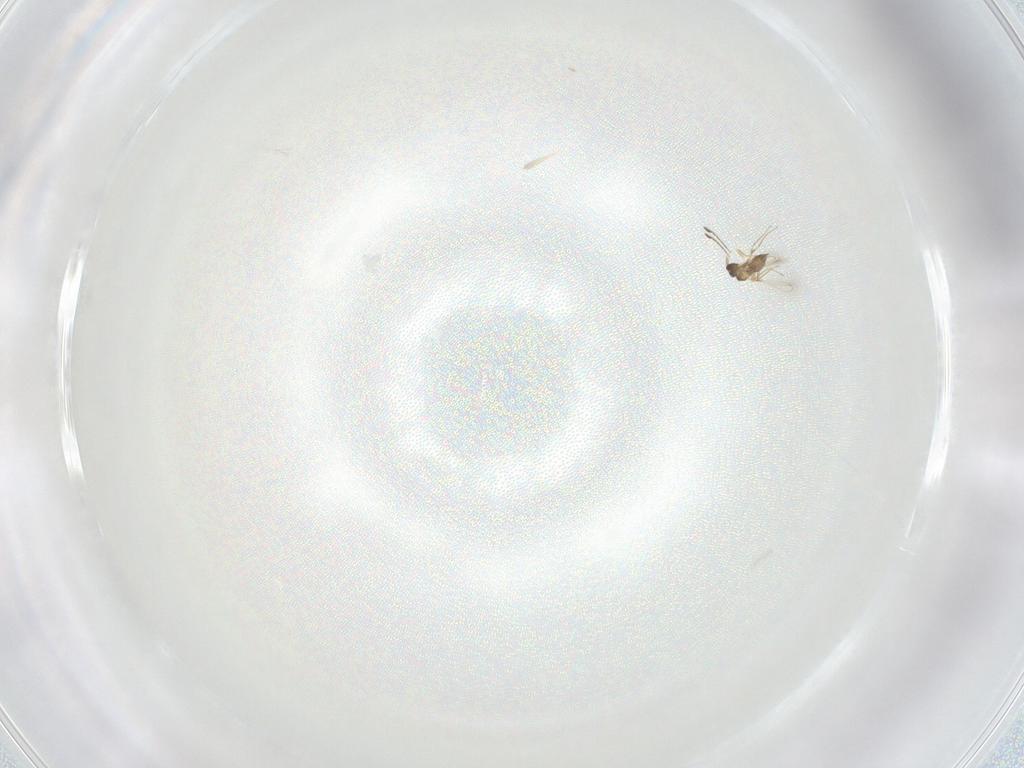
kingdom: Animalia
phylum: Arthropoda
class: Insecta
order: Hymenoptera
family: Mymaridae
